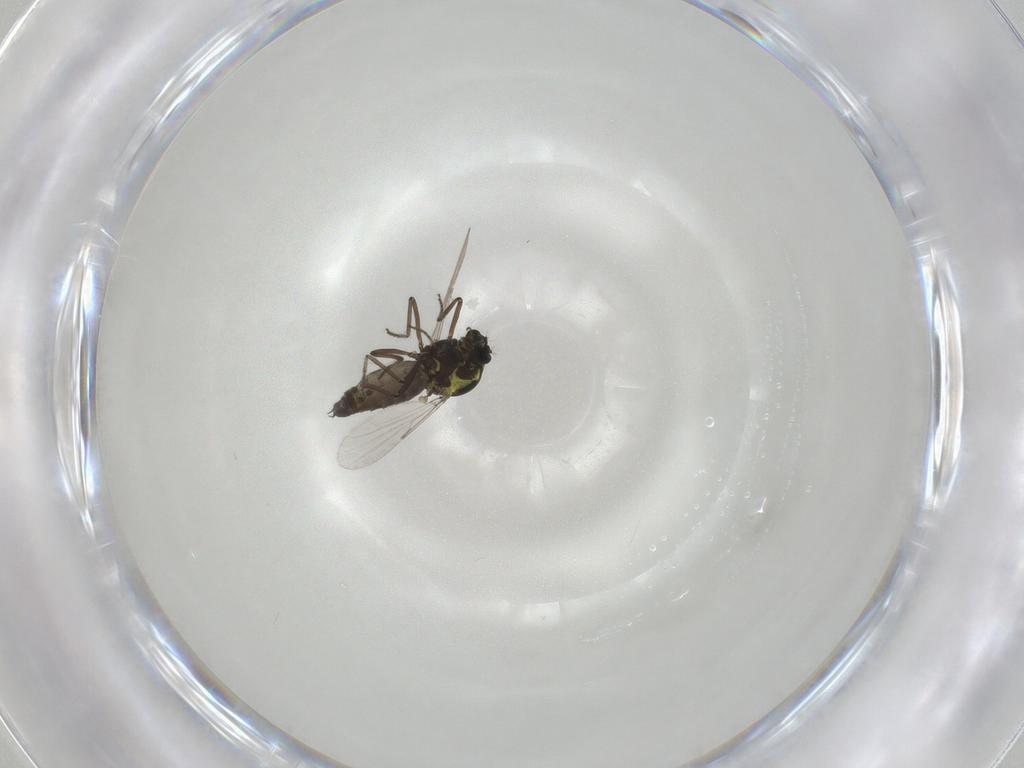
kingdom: Animalia
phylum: Arthropoda
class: Insecta
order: Diptera
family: Ceratopogonidae
